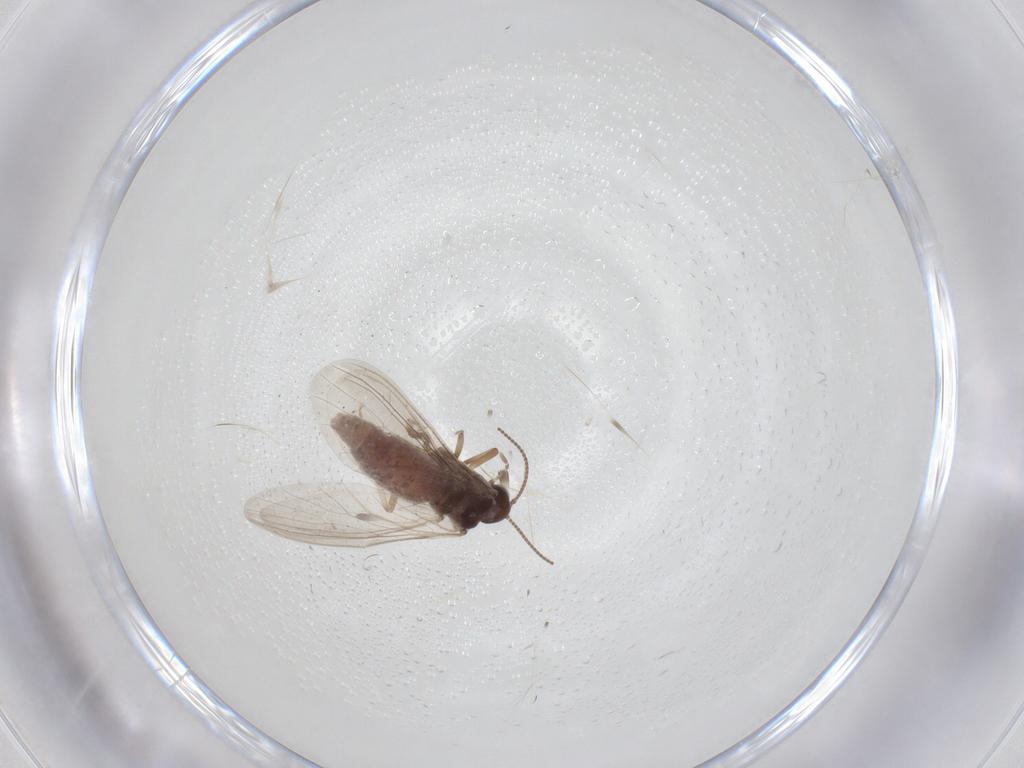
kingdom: Animalia
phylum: Arthropoda
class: Insecta
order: Neuroptera
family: Coniopterygidae
